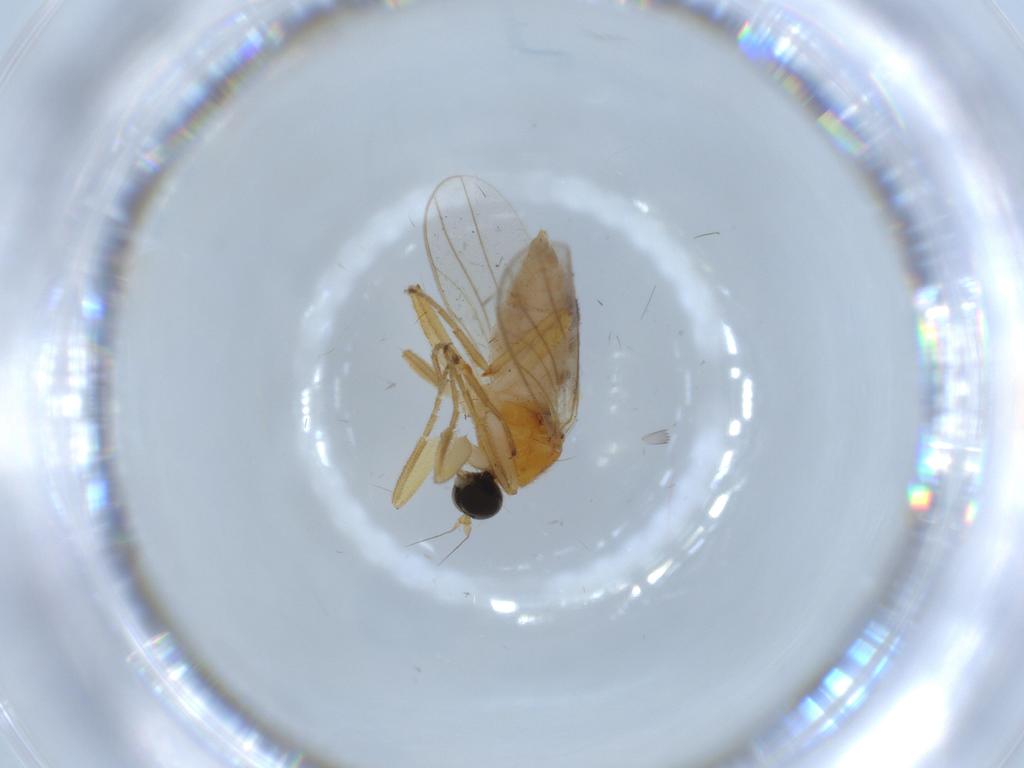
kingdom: Animalia
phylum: Arthropoda
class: Insecta
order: Diptera
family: Hybotidae
